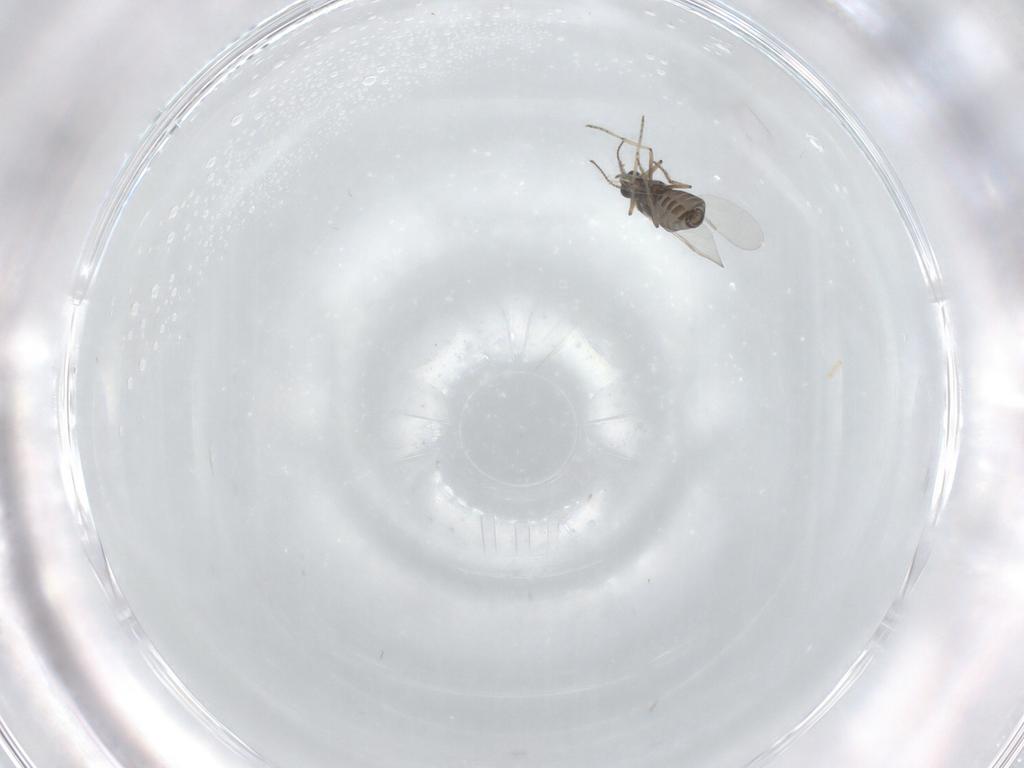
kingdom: Animalia
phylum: Arthropoda
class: Insecta
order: Diptera
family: Ceratopogonidae
